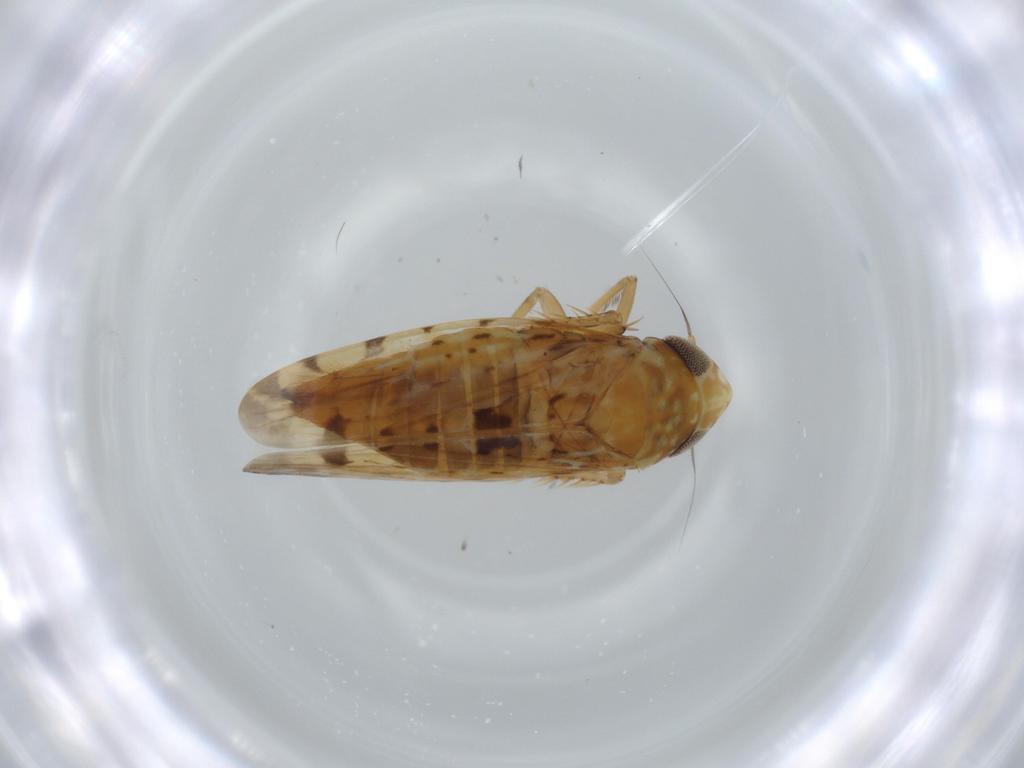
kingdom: Animalia
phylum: Arthropoda
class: Insecta
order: Hemiptera
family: Cicadellidae
